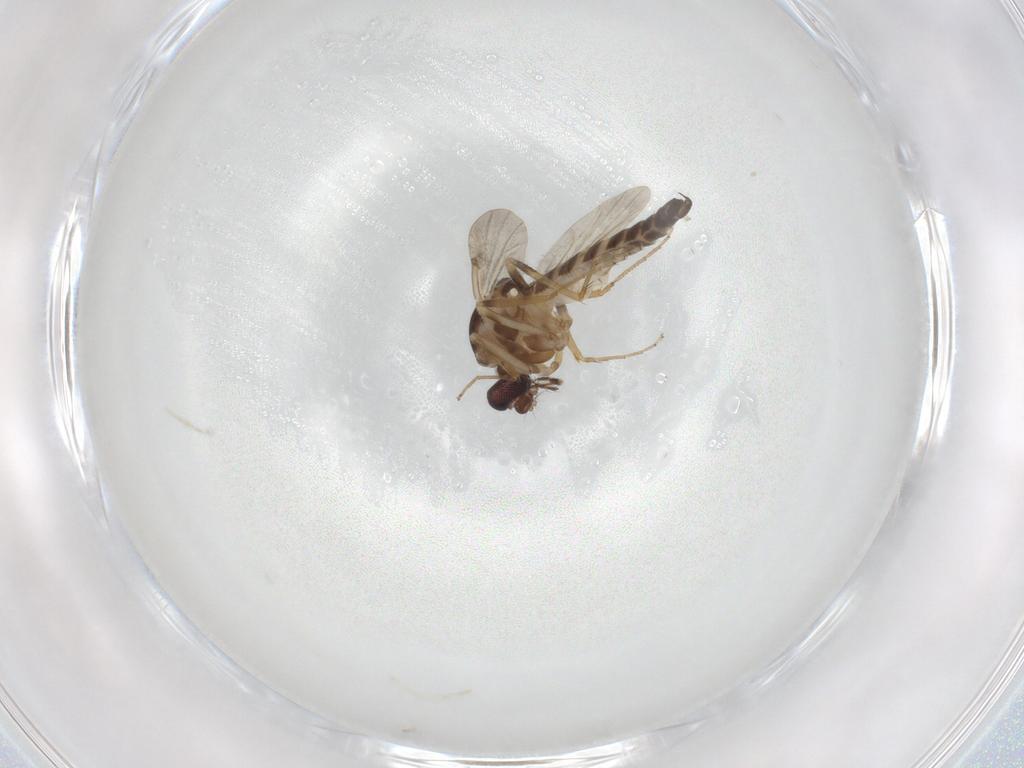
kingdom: Animalia
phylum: Arthropoda
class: Insecta
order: Diptera
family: Ceratopogonidae
